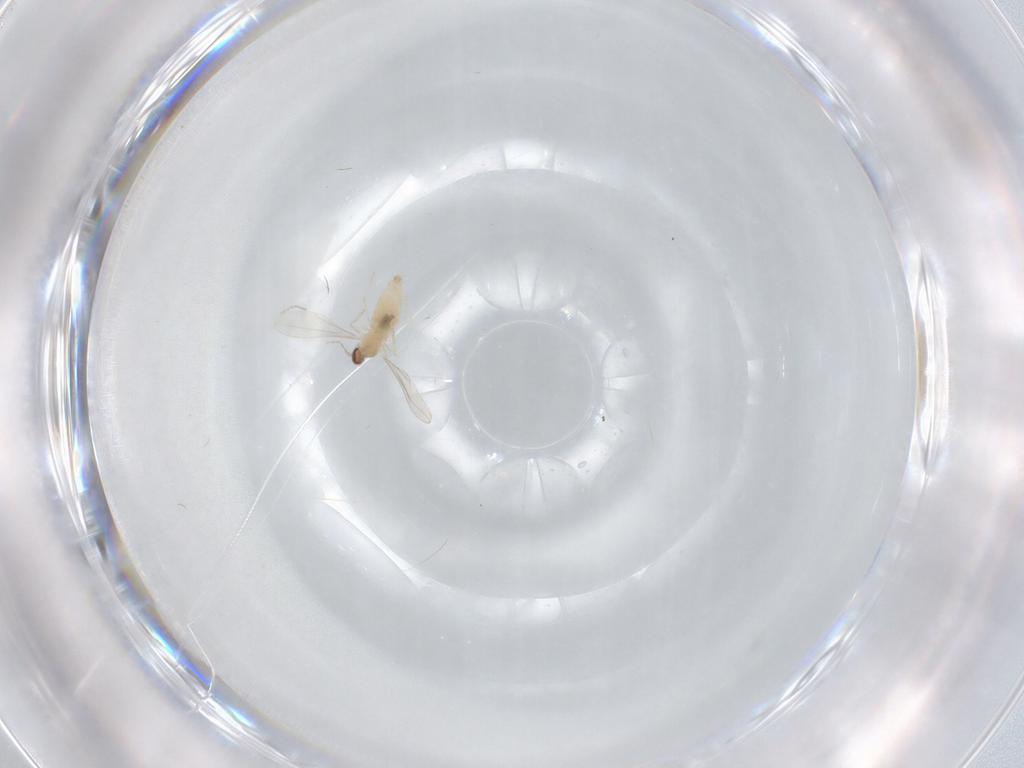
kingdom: Animalia
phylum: Arthropoda
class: Insecta
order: Diptera
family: Cecidomyiidae
